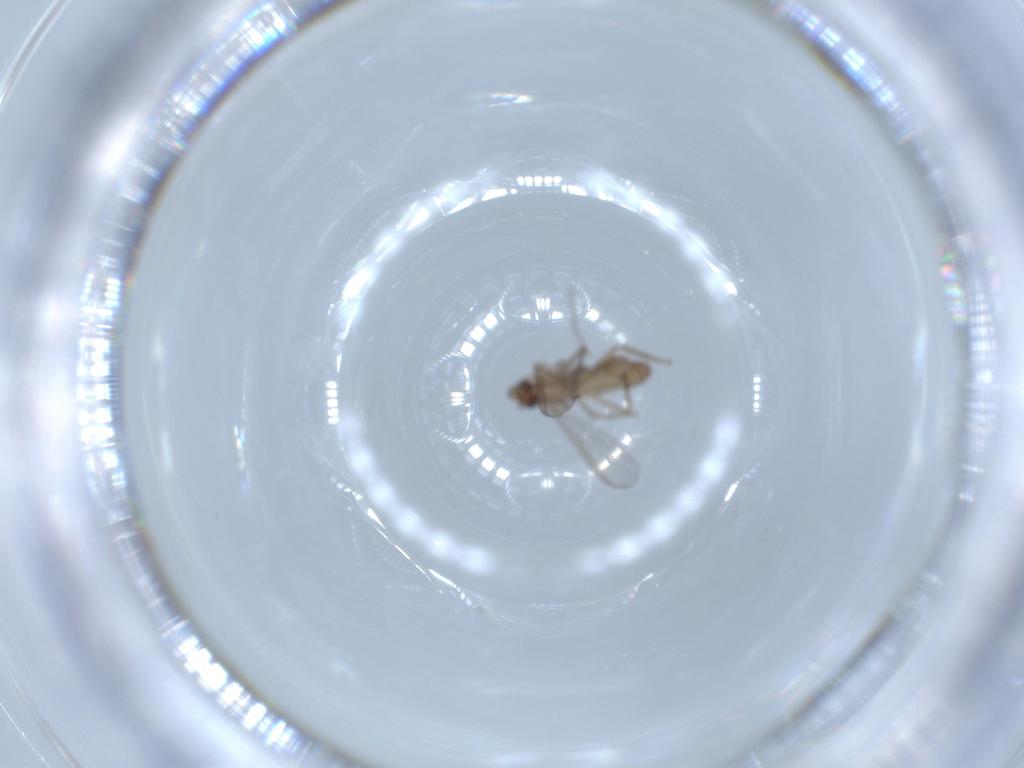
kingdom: Animalia
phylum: Arthropoda
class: Insecta
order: Diptera
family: Chironomidae
